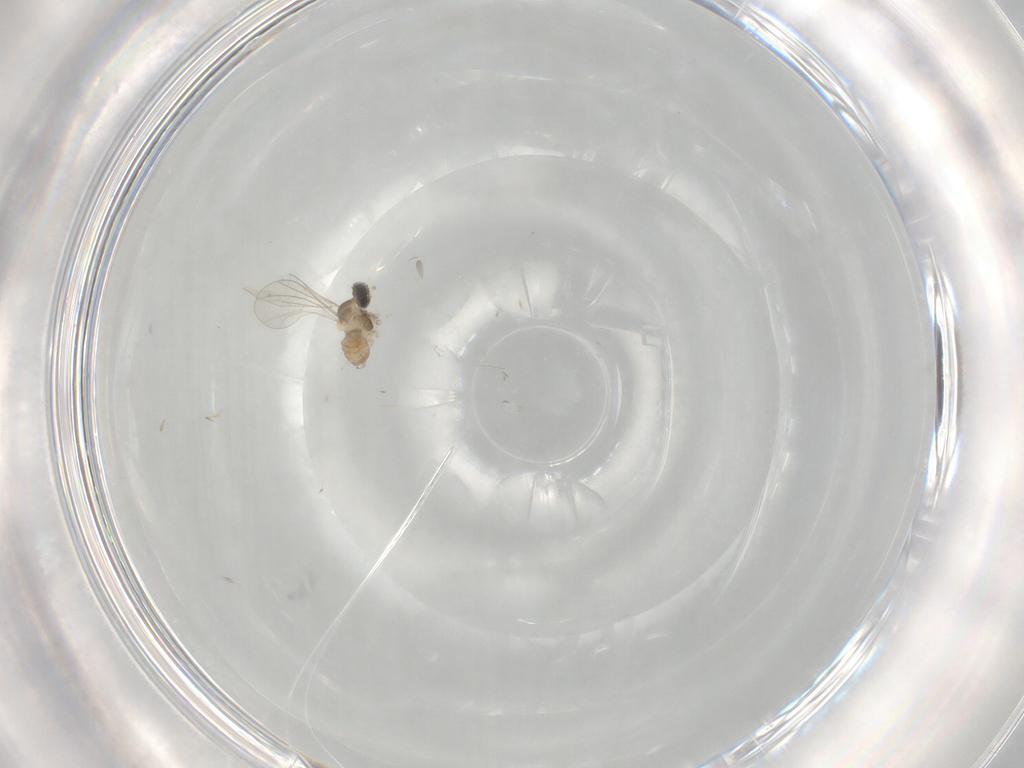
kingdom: Animalia
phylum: Arthropoda
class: Insecta
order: Diptera
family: Cecidomyiidae
